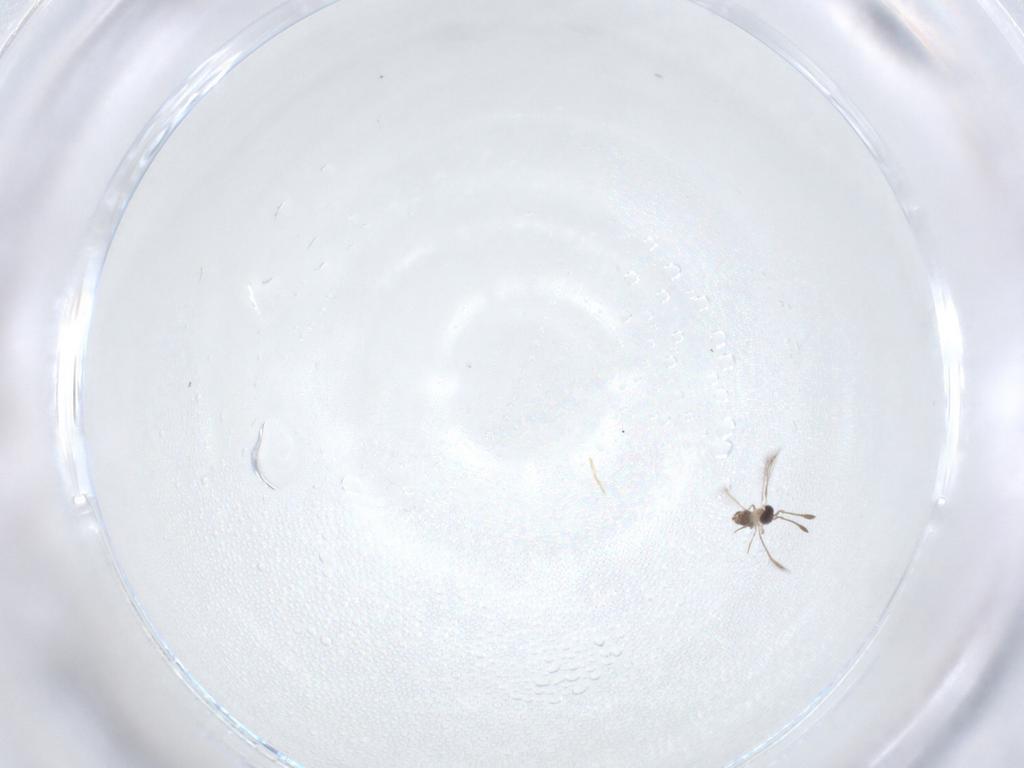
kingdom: Animalia
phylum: Arthropoda
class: Insecta
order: Hymenoptera
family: Mymaridae
